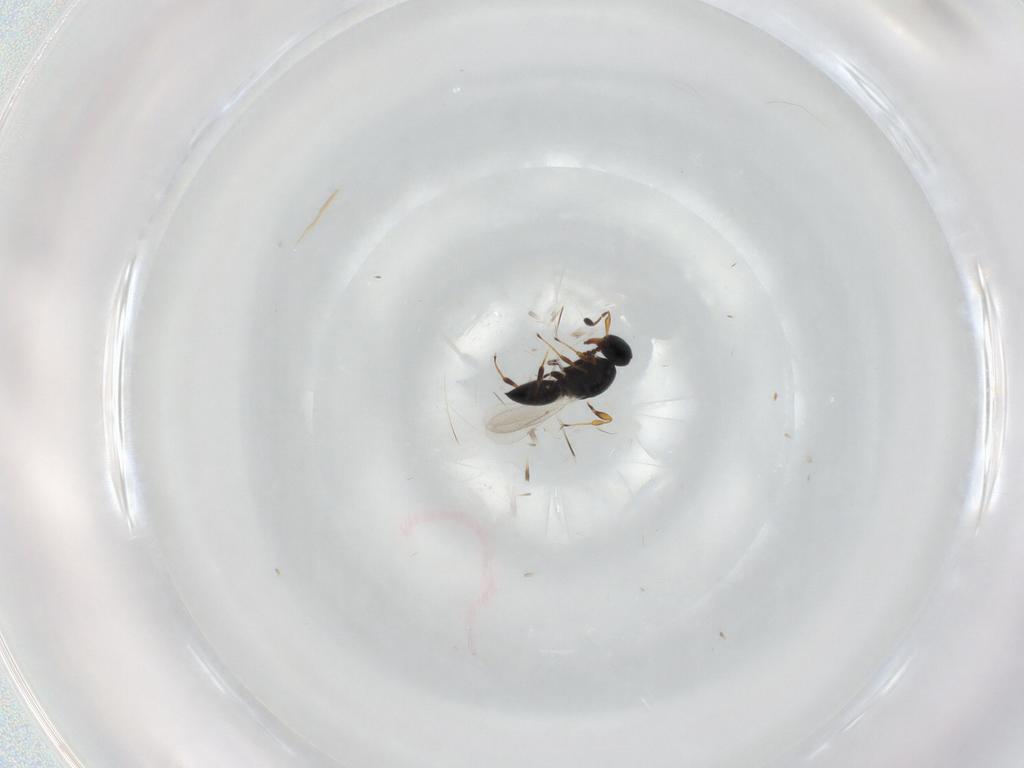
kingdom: Animalia
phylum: Arthropoda
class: Insecta
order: Hymenoptera
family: Platygastridae
